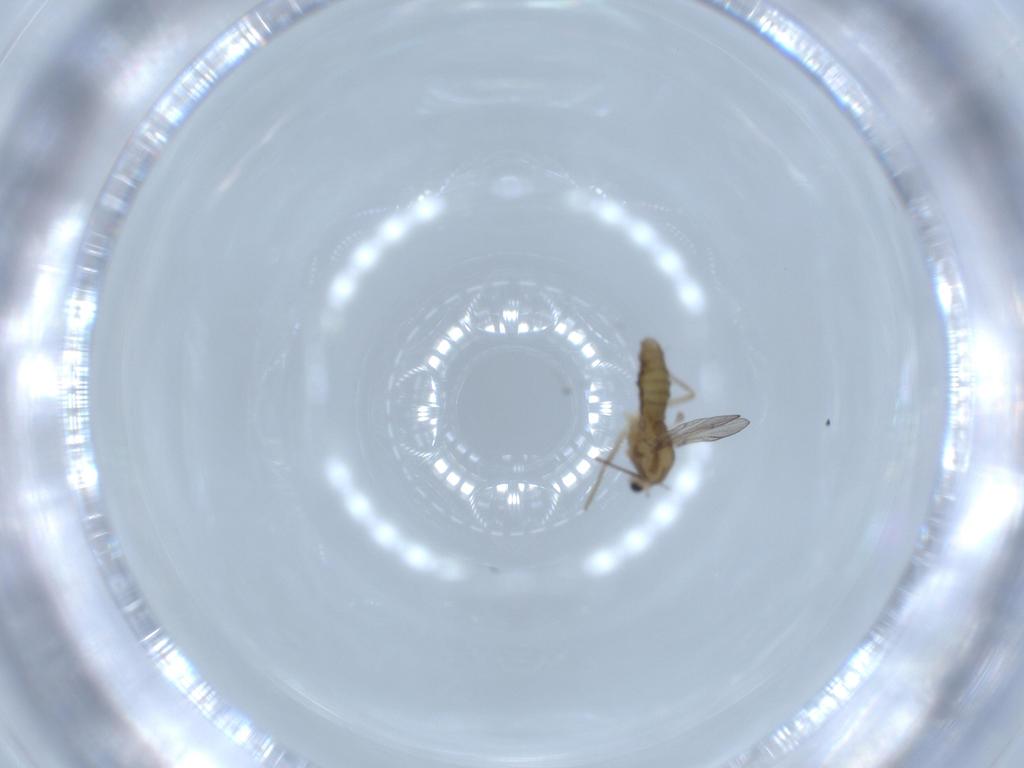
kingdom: Animalia
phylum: Arthropoda
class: Insecta
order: Diptera
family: Chironomidae
